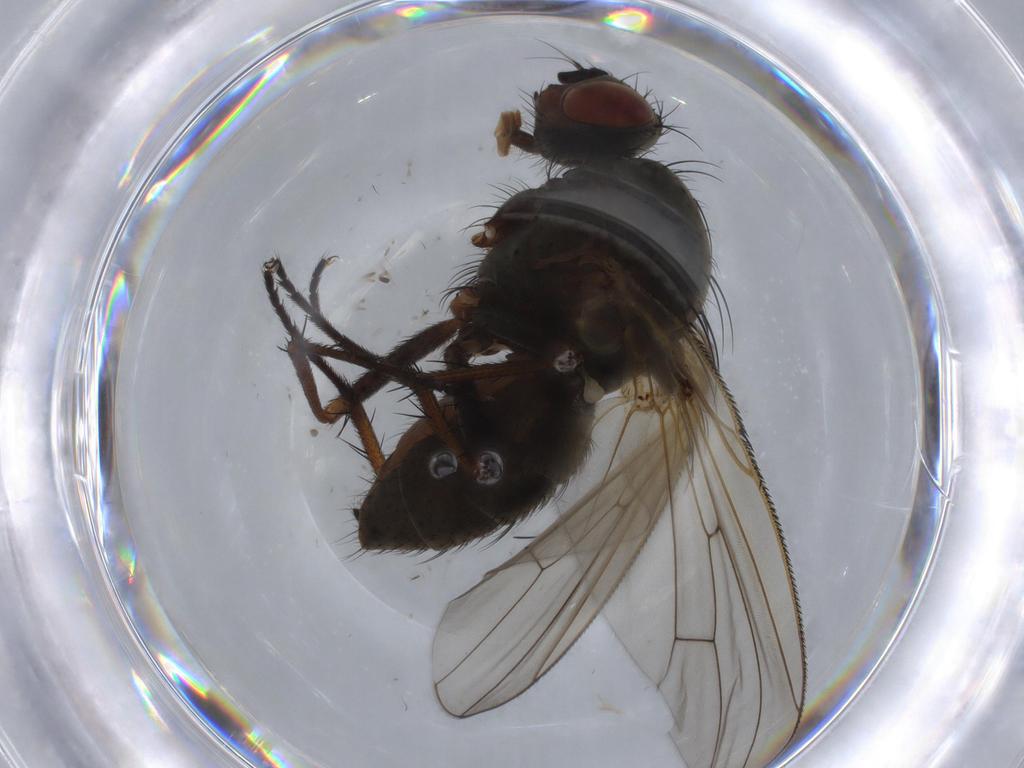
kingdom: Animalia
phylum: Arthropoda
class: Insecta
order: Diptera
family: Anthomyiidae
